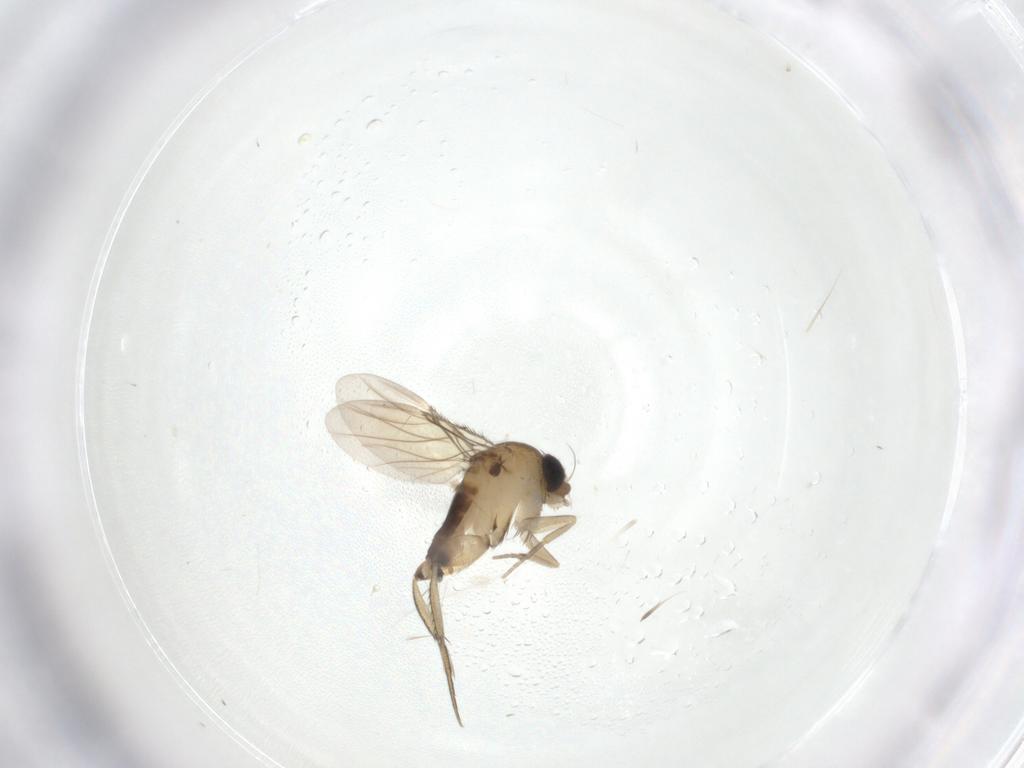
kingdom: Animalia
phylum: Arthropoda
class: Insecta
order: Diptera
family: Phoridae
